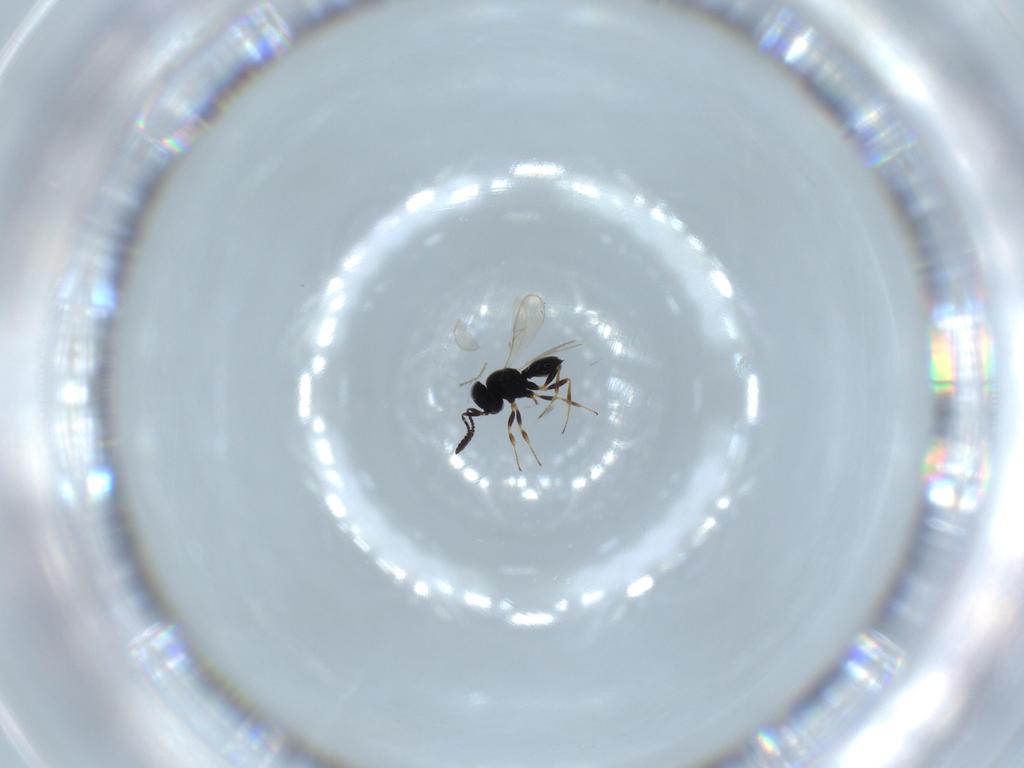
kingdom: Animalia
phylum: Arthropoda
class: Insecta
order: Hymenoptera
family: Scelionidae
